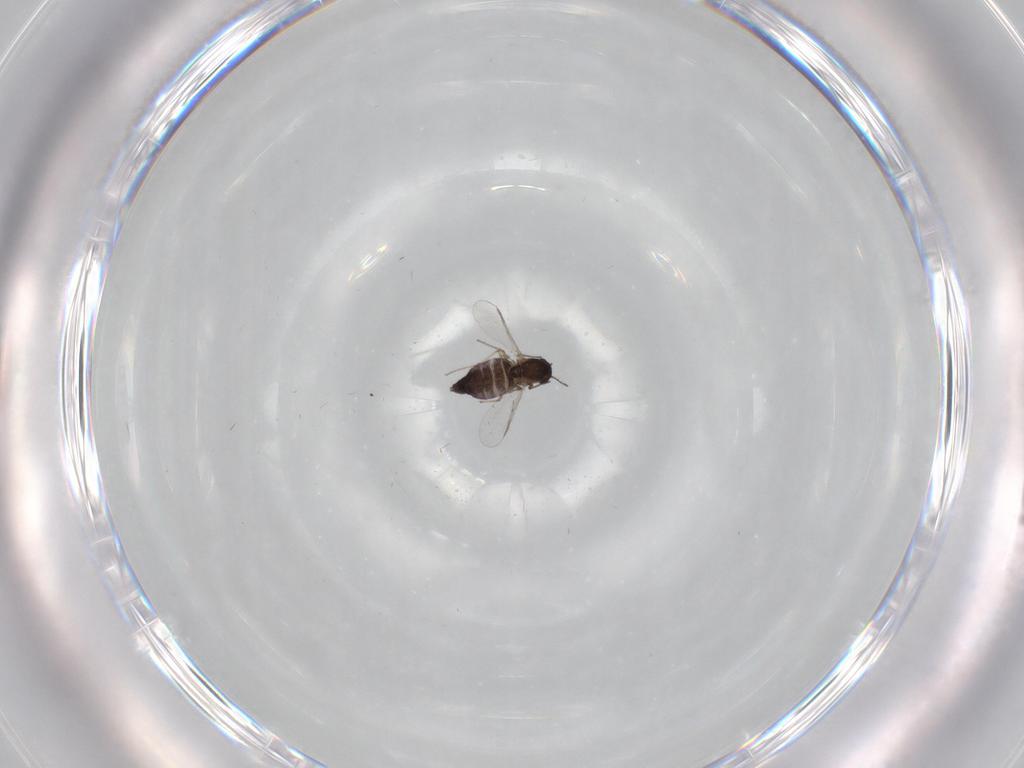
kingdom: Animalia
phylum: Arthropoda
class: Insecta
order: Diptera
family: Chironomidae
